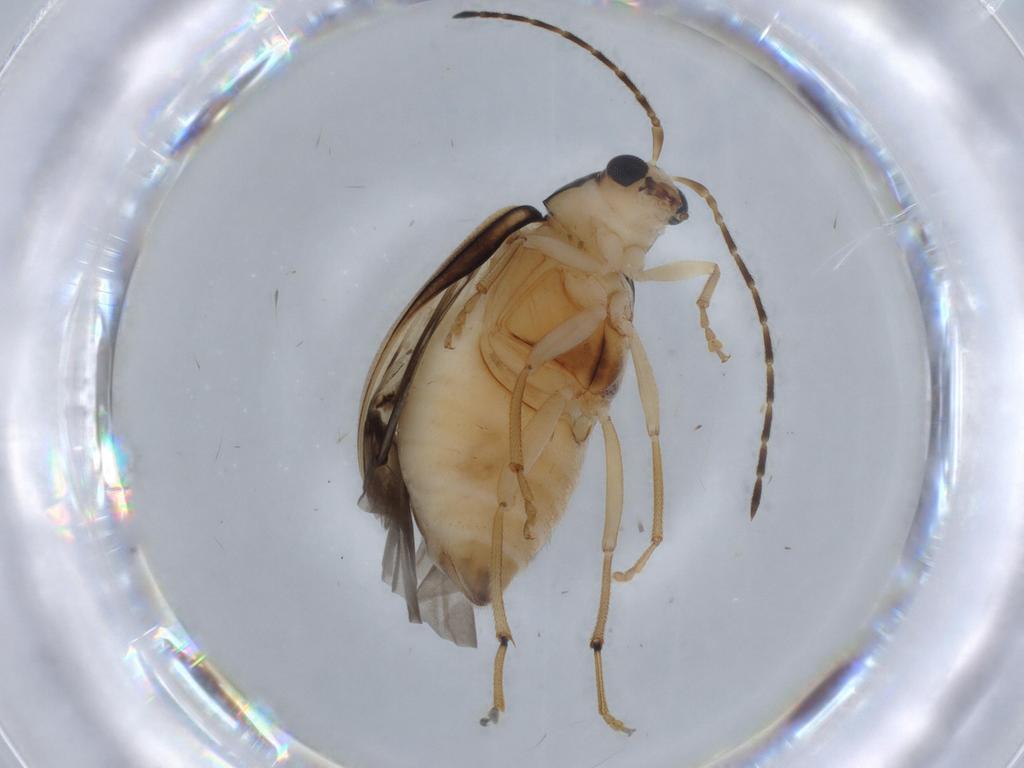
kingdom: Animalia
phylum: Arthropoda
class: Insecta
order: Coleoptera
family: Chrysomelidae
